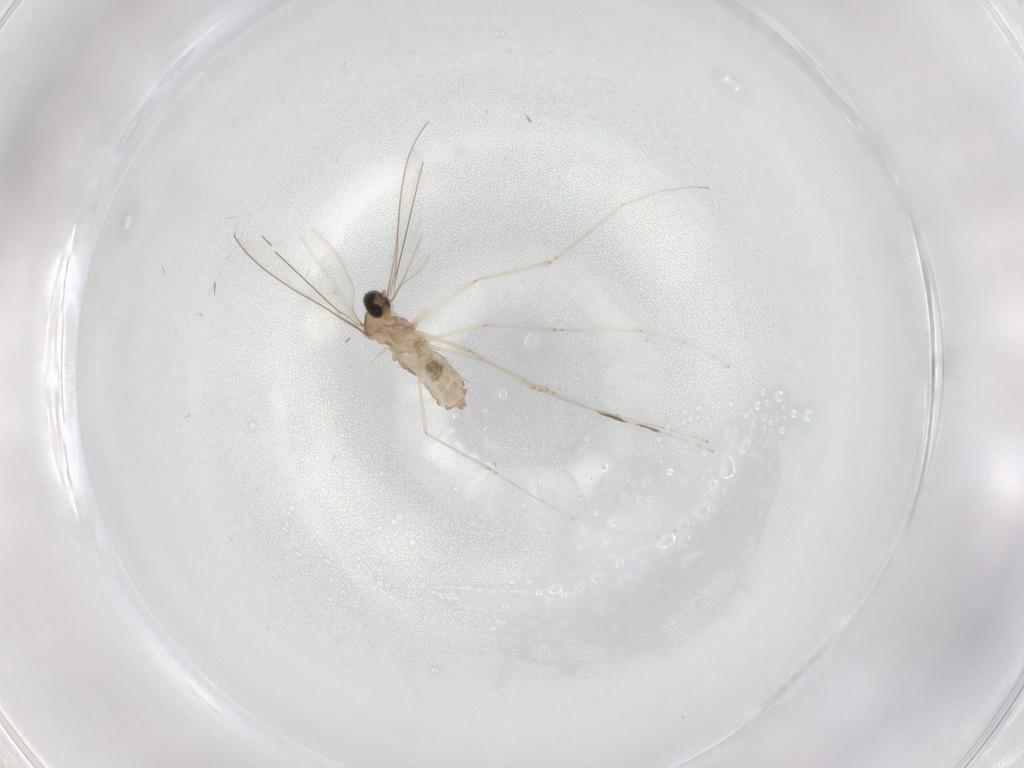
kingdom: Animalia
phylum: Arthropoda
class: Insecta
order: Diptera
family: Cecidomyiidae
